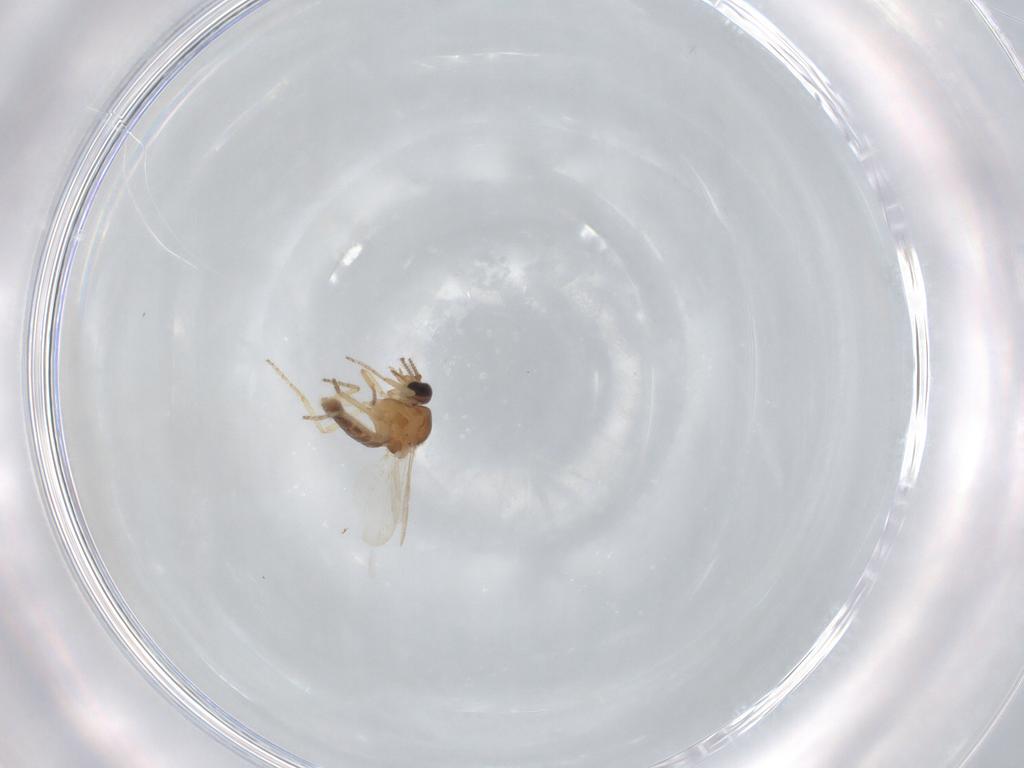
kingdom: Animalia
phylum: Arthropoda
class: Insecta
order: Diptera
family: Ceratopogonidae
